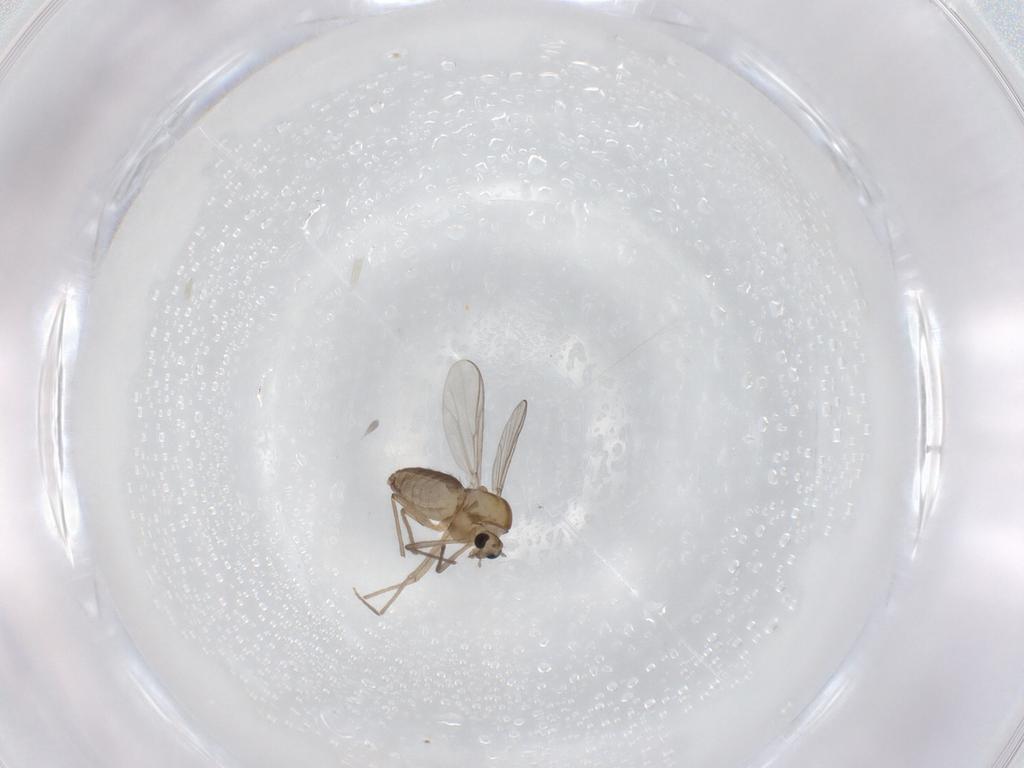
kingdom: Animalia
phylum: Arthropoda
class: Insecta
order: Diptera
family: Chironomidae
